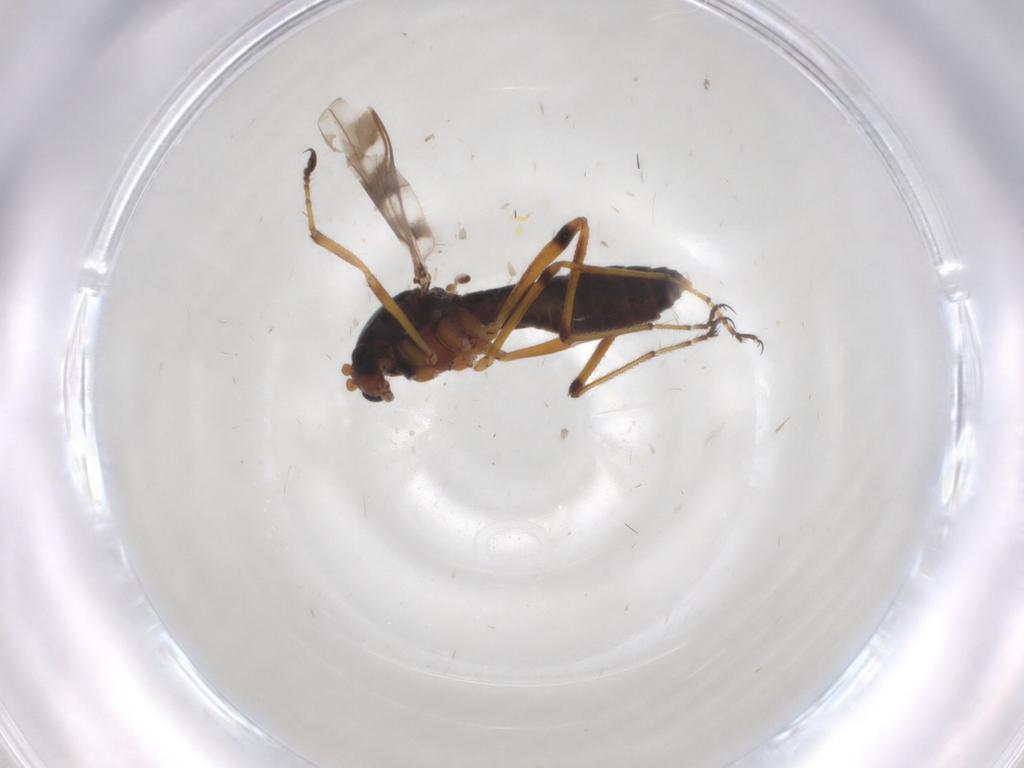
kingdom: Animalia
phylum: Arthropoda
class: Insecta
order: Diptera
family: Ceratopogonidae
